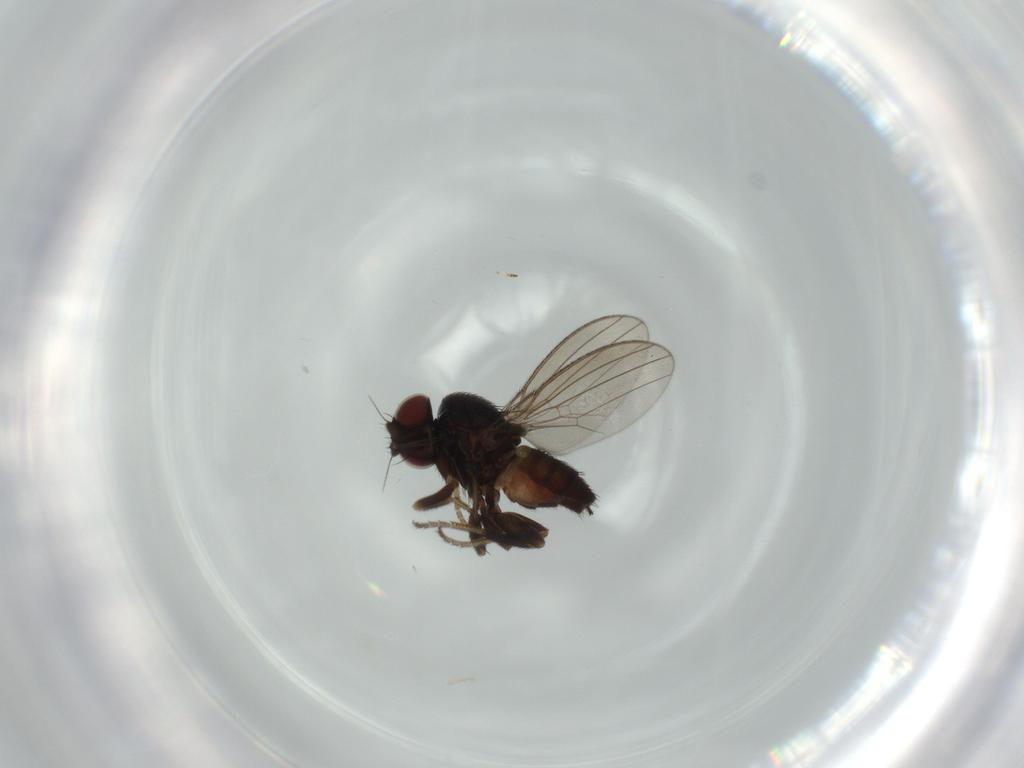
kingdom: Animalia
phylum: Arthropoda
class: Insecta
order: Diptera
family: Milichiidae
